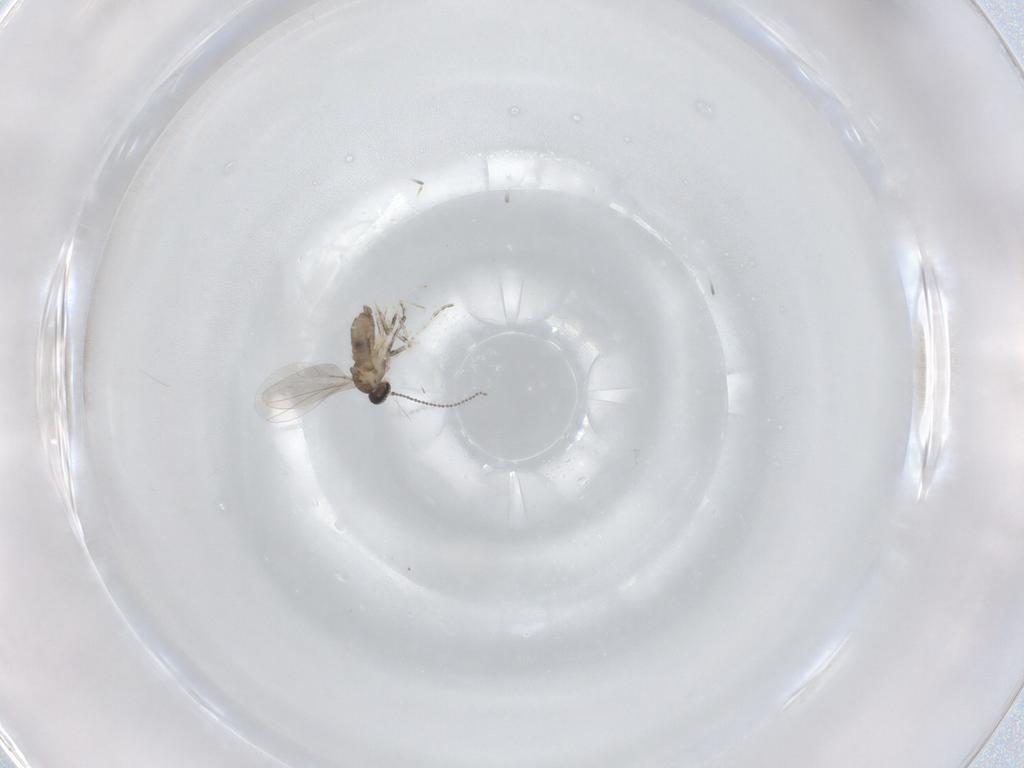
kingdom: Animalia
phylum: Arthropoda
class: Insecta
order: Diptera
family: Cecidomyiidae
